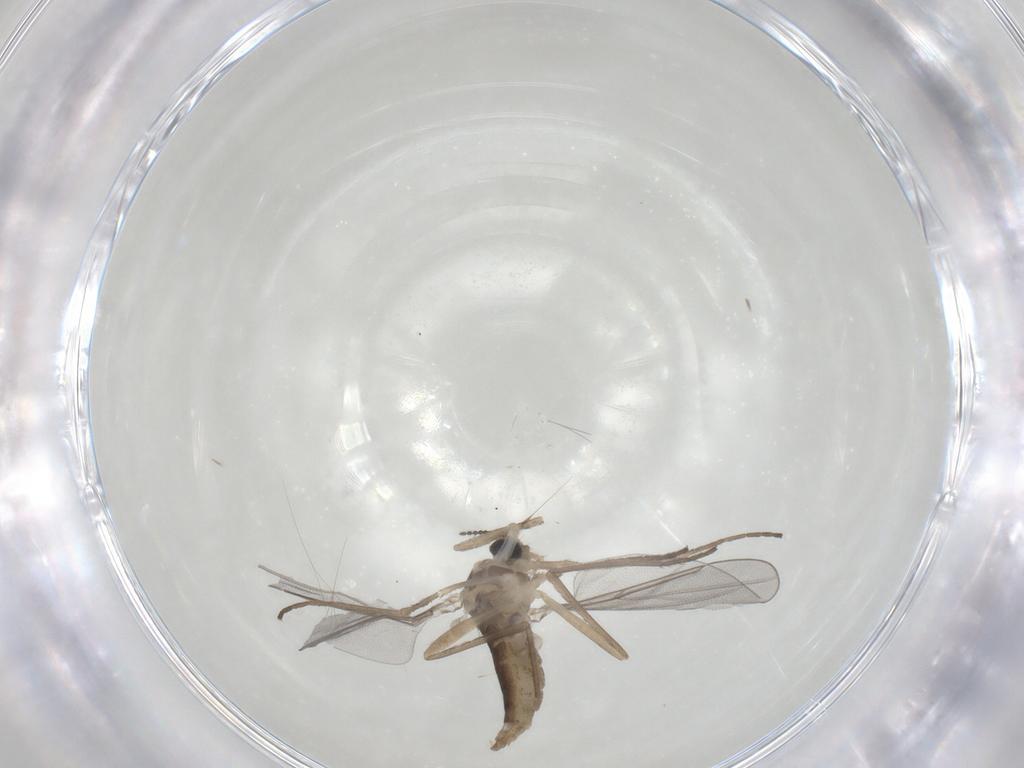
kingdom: Animalia
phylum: Arthropoda
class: Insecta
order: Diptera
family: Cecidomyiidae
